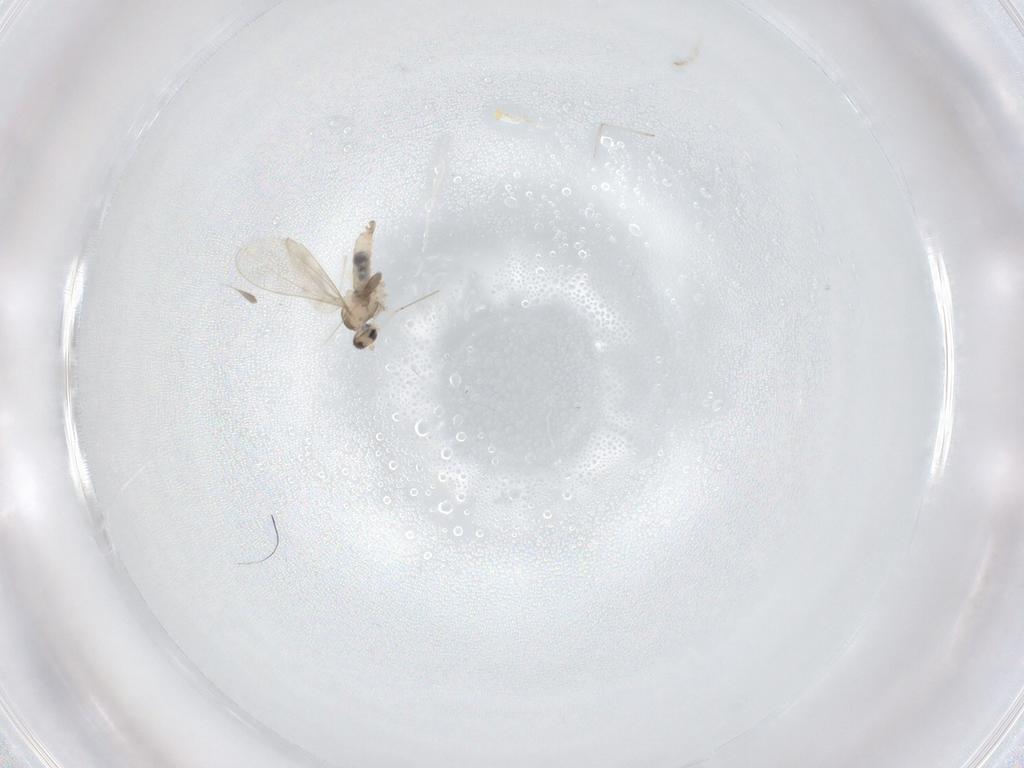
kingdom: Animalia
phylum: Arthropoda
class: Insecta
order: Diptera
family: Cecidomyiidae
